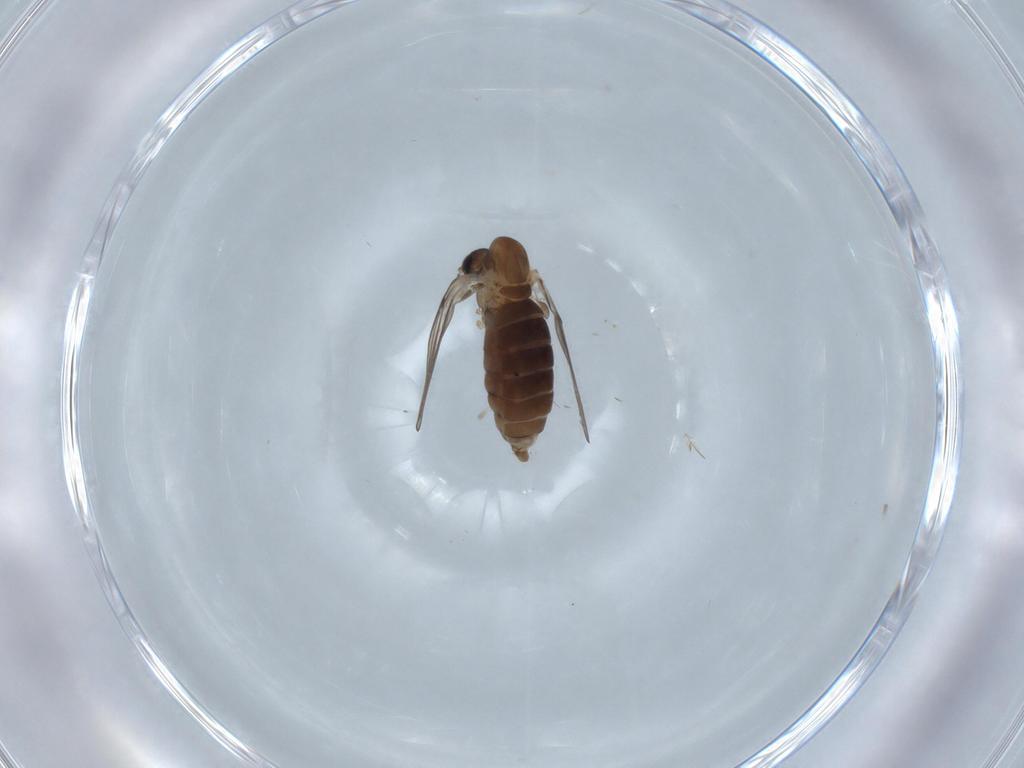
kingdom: Animalia
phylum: Arthropoda
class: Insecta
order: Diptera
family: Psychodidae
